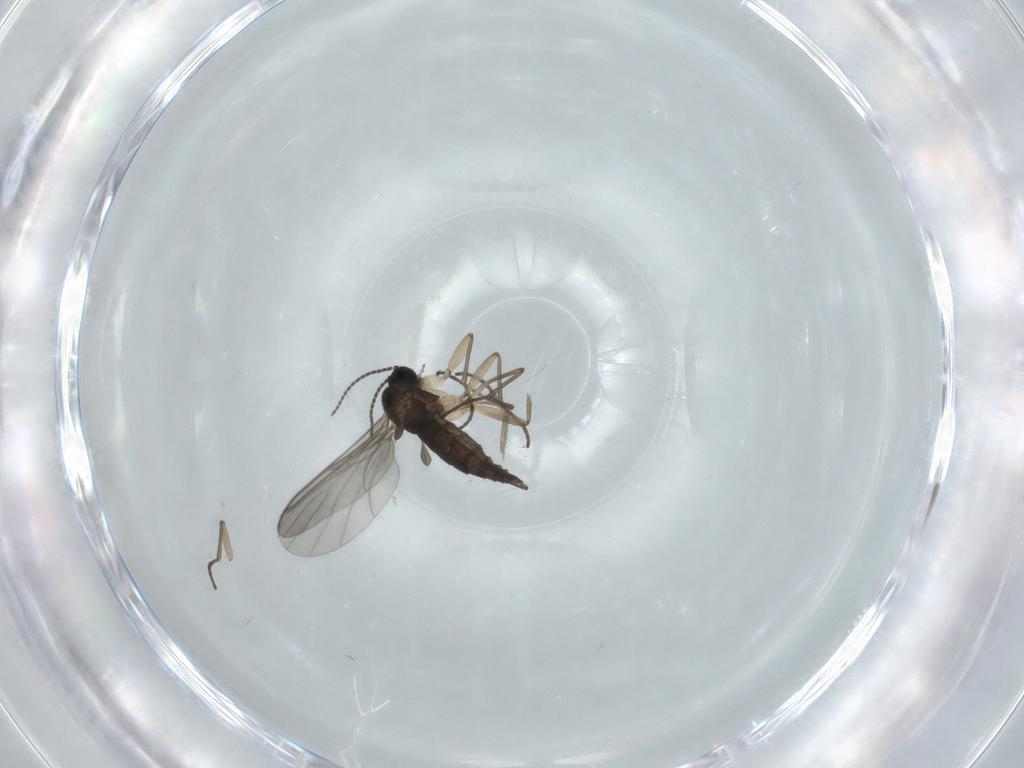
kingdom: Animalia
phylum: Arthropoda
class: Insecta
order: Diptera
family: Sciaridae
